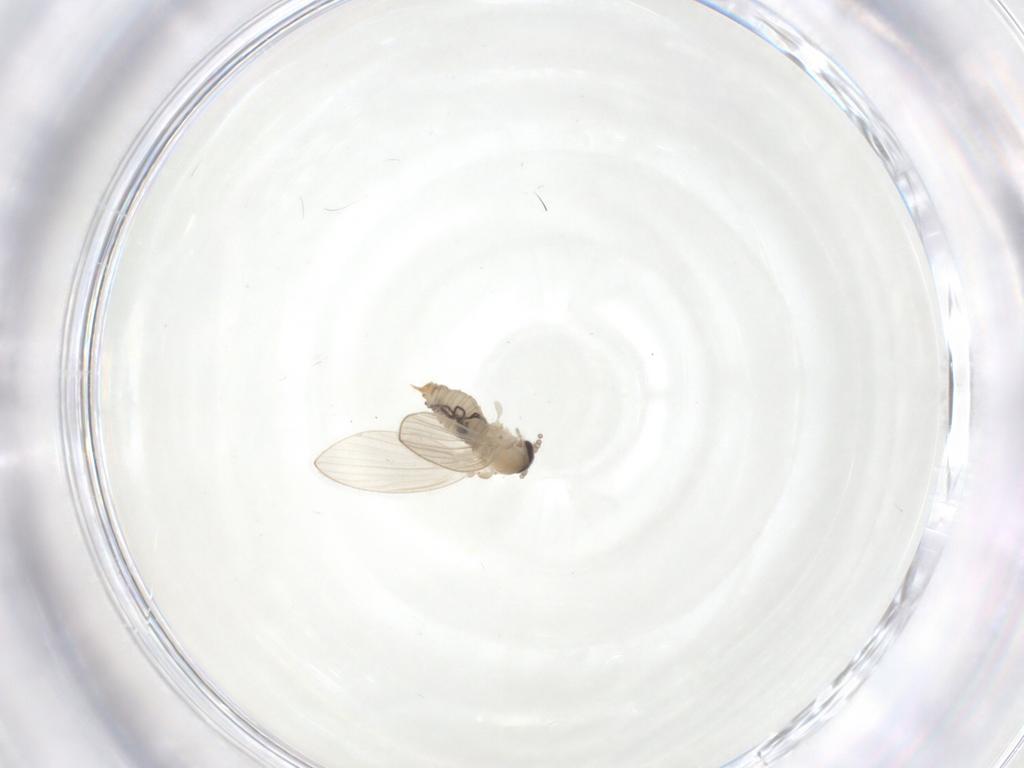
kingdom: Animalia
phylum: Arthropoda
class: Insecta
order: Diptera
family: Psychodidae
